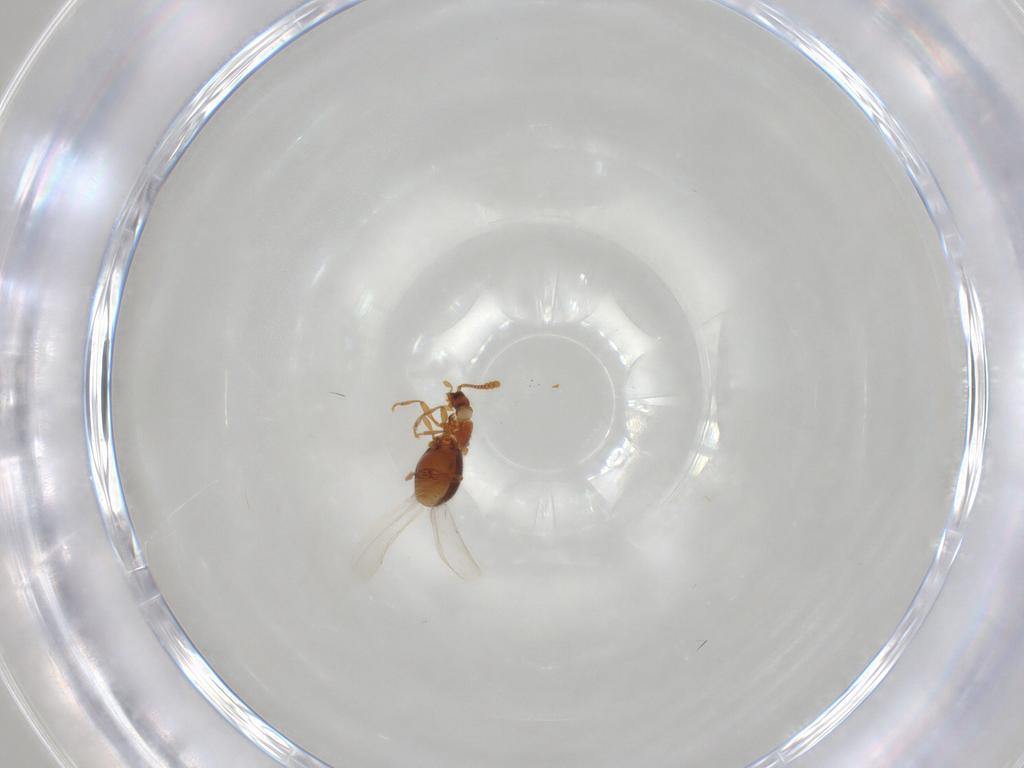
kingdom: Animalia
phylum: Arthropoda
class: Insecta
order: Coleoptera
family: Staphylinidae
